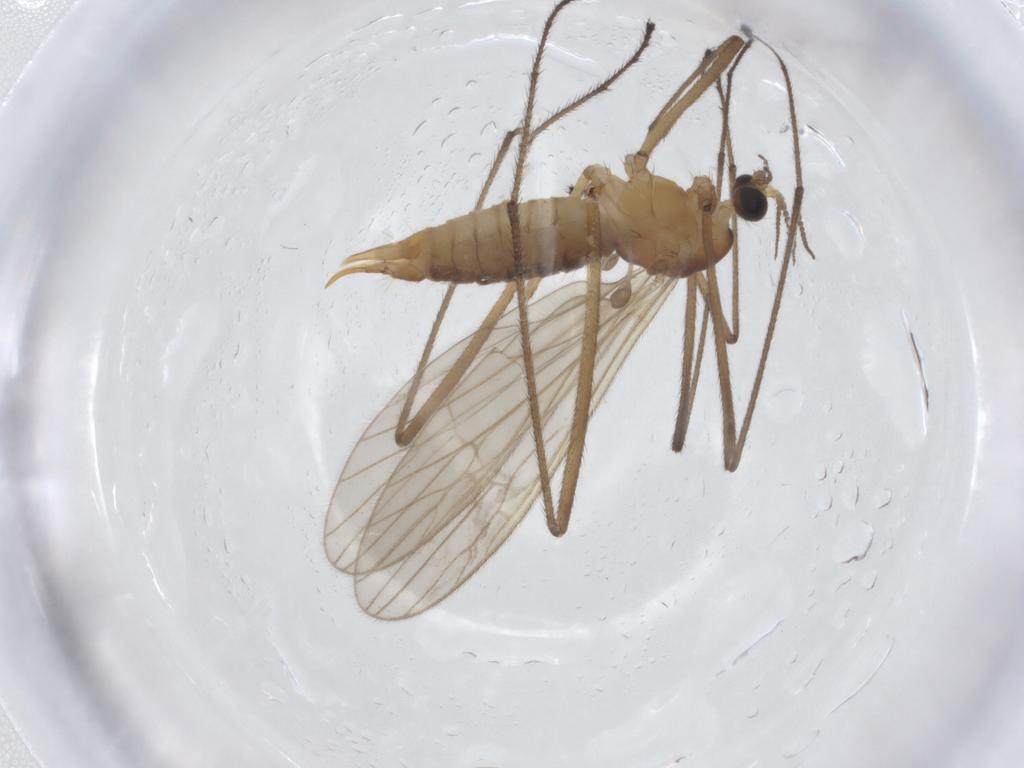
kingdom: Animalia
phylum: Arthropoda
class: Insecta
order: Diptera
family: Limoniidae
